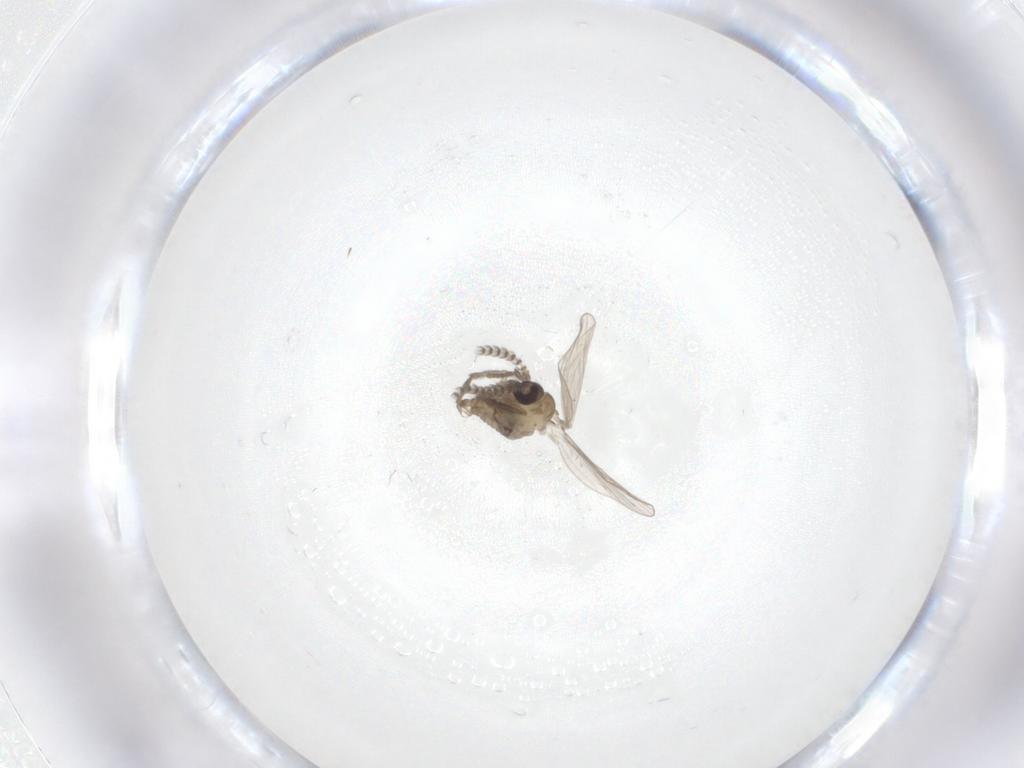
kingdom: Animalia
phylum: Arthropoda
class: Insecta
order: Diptera
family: Psychodidae
